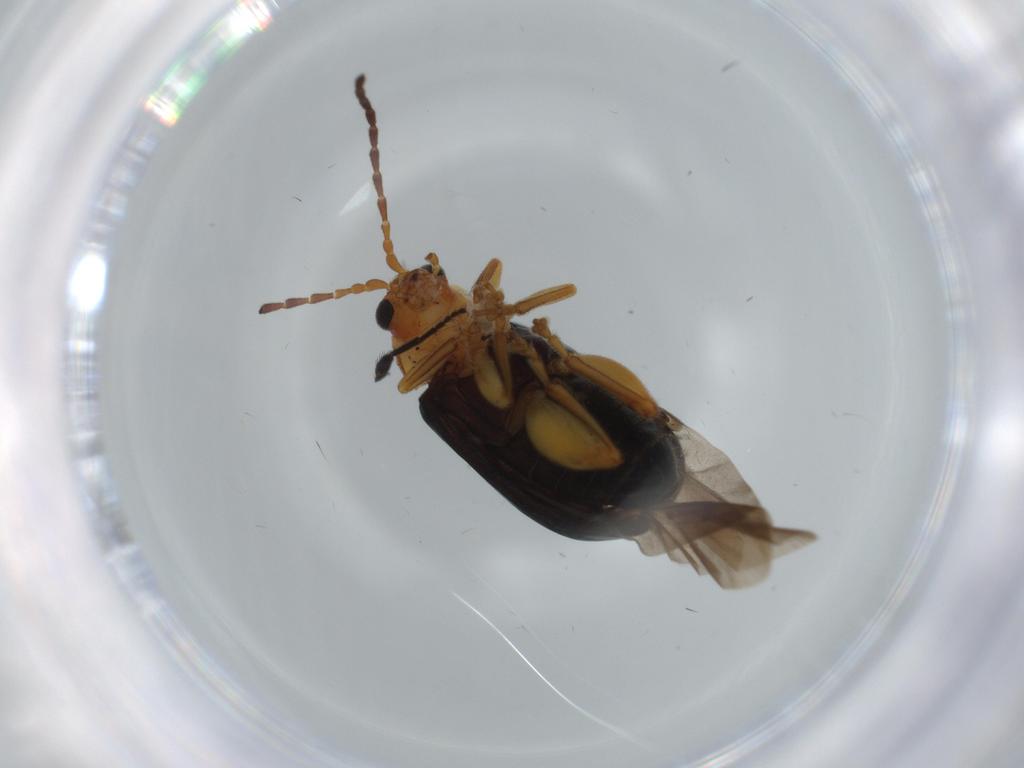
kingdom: Animalia
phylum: Arthropoda
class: Insecta
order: Coleoptera
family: Chrysomelidae
